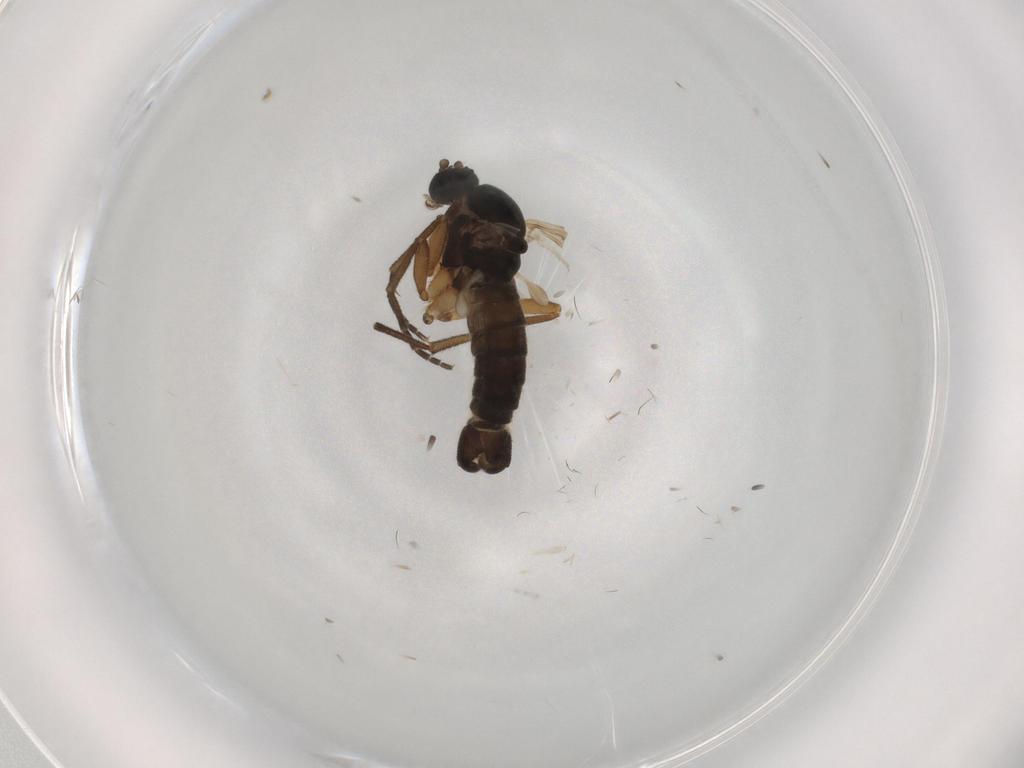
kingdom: Animalia
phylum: Arthropoda
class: Insecta
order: Diptera
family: Sciaridae
